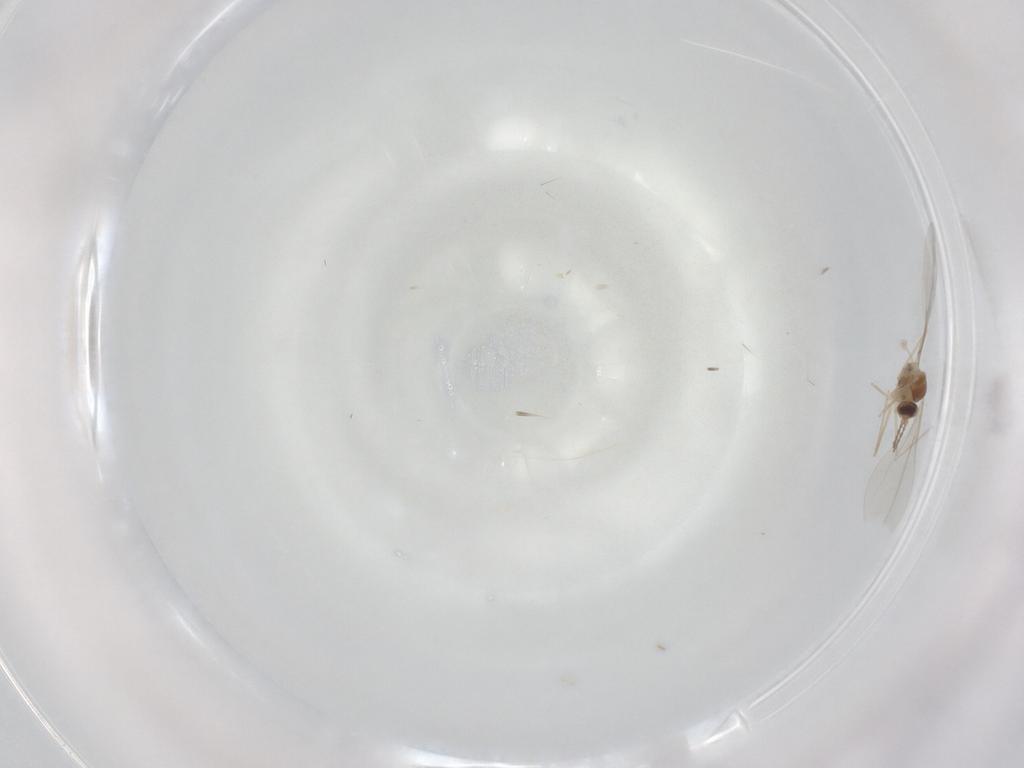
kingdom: Animalia
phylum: Arthropoda
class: Insecta
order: Diptera
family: Cecidomyiidae
